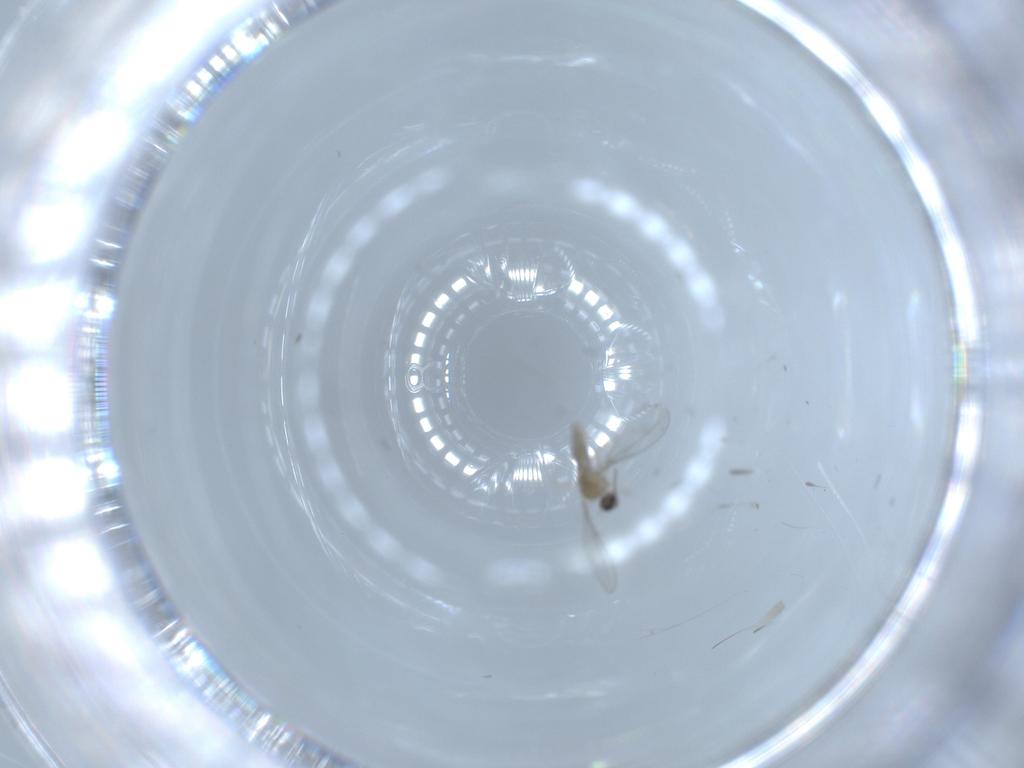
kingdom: Animalia
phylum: Arthropoda
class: Insecta
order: Diptera
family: Cecidomyiidae
